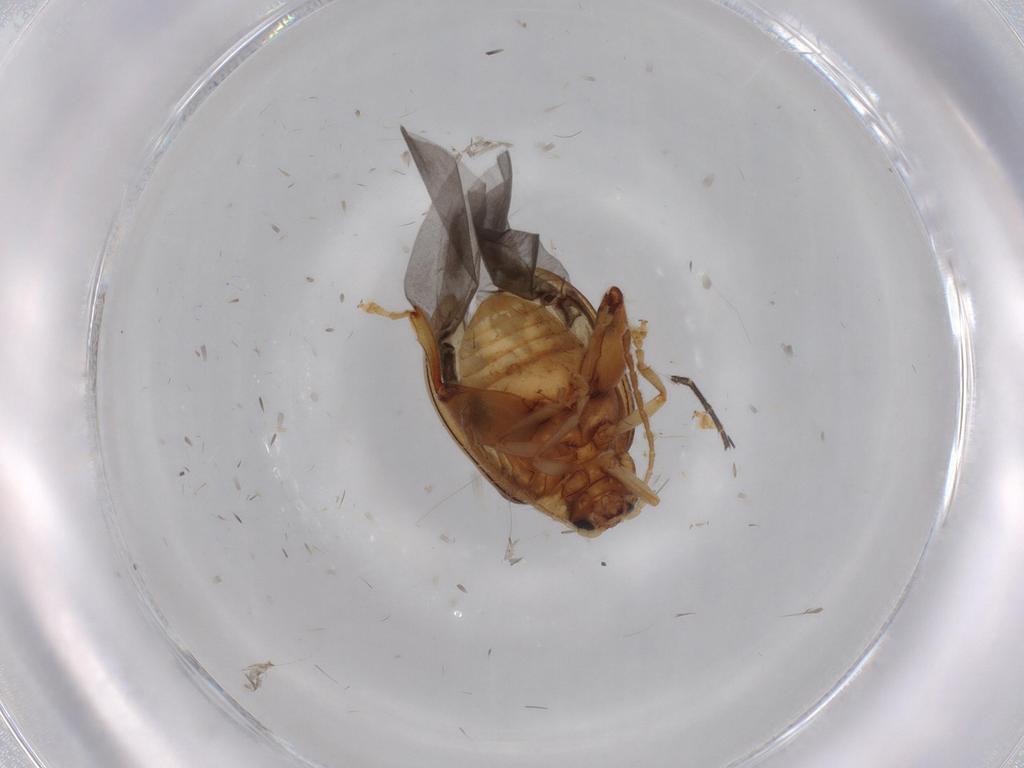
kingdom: Animalia
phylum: Arthropoda
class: Insecta
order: Coleoptera
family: Chrysomelidae
